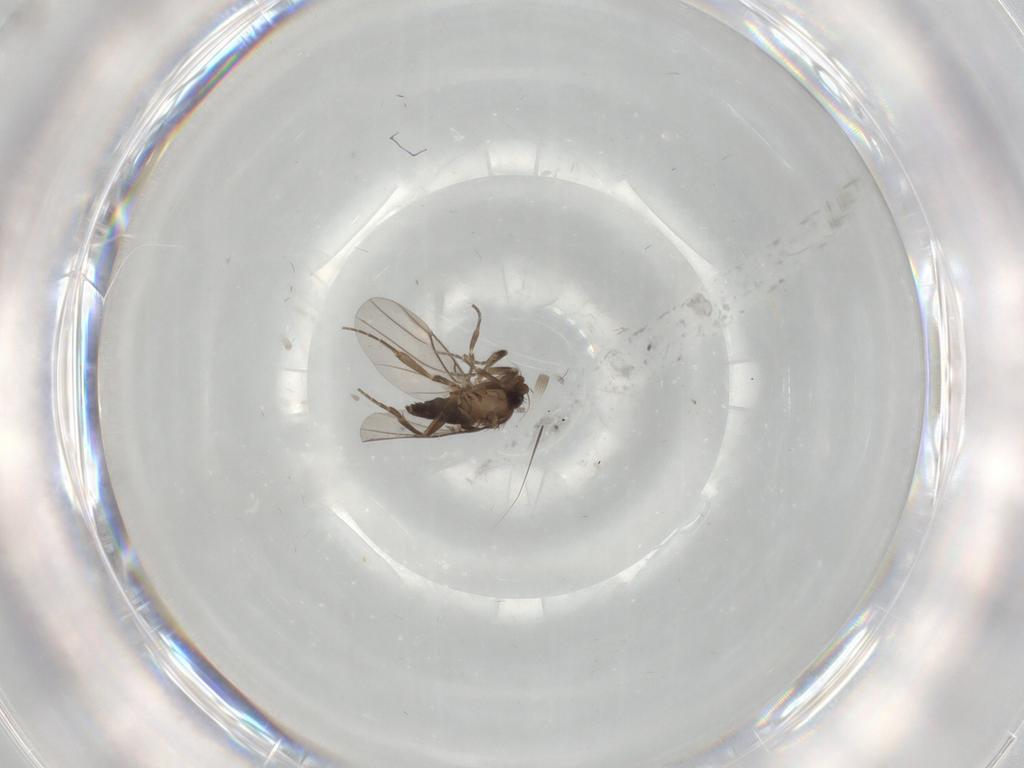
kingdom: Animalia
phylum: Arthropoda
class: Insecta
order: Diptera
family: Phoridae
